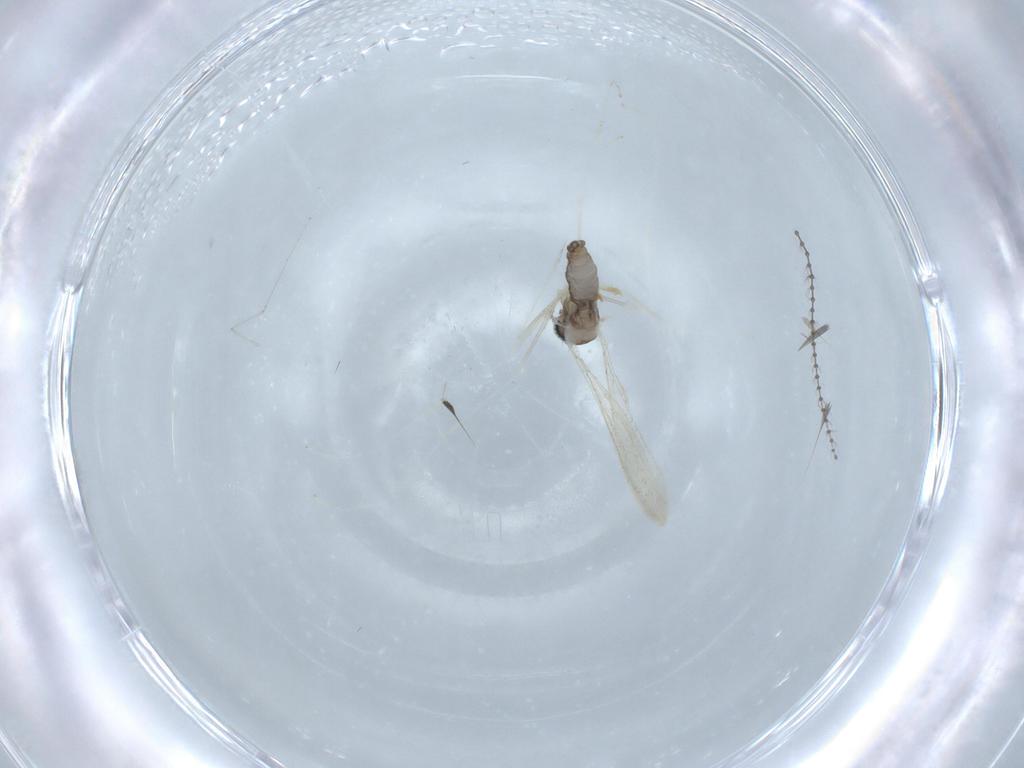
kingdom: Animalia
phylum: Arthropoda
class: Insecta
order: Diptera
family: Cecidomyiidae
